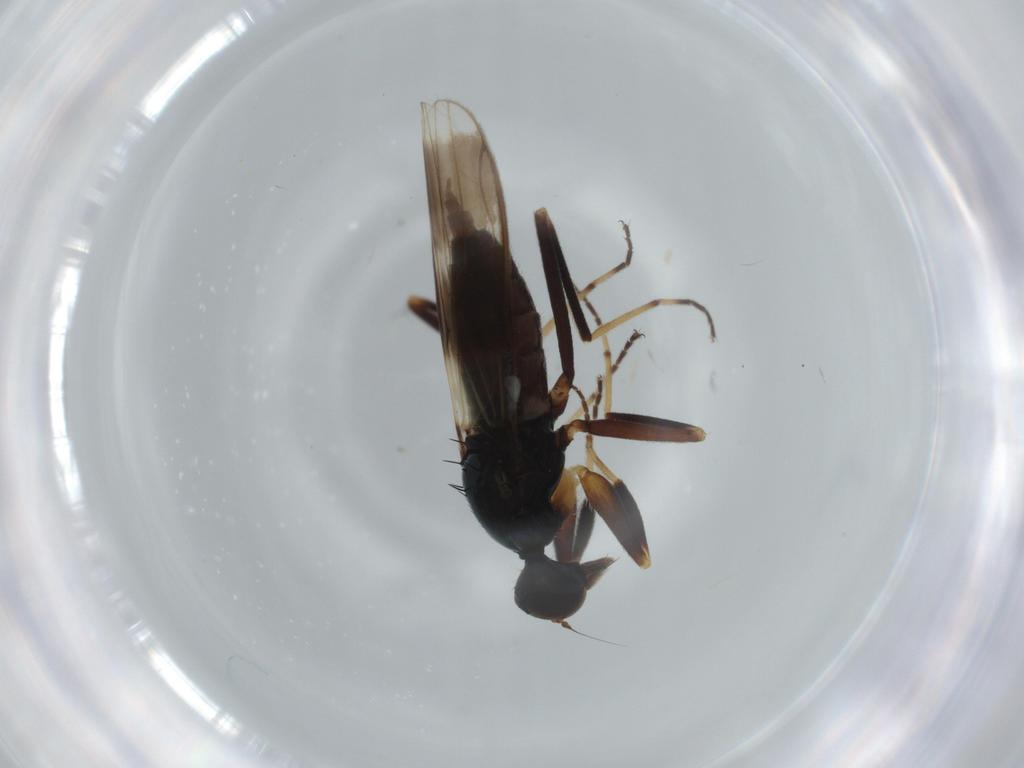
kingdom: Animalia
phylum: Arthropoda
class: Insecta
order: Diptera
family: Hybotidae
